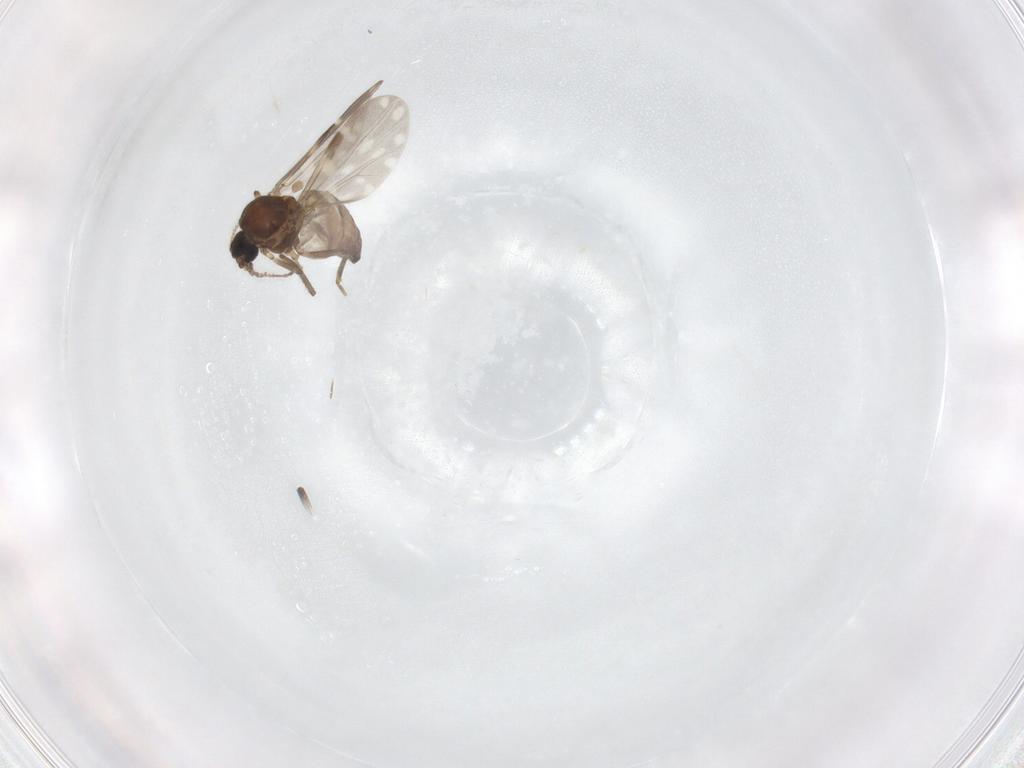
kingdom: Animalia
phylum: Arthropoda
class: Insecta
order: Diptera
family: Ceratopogonidae
